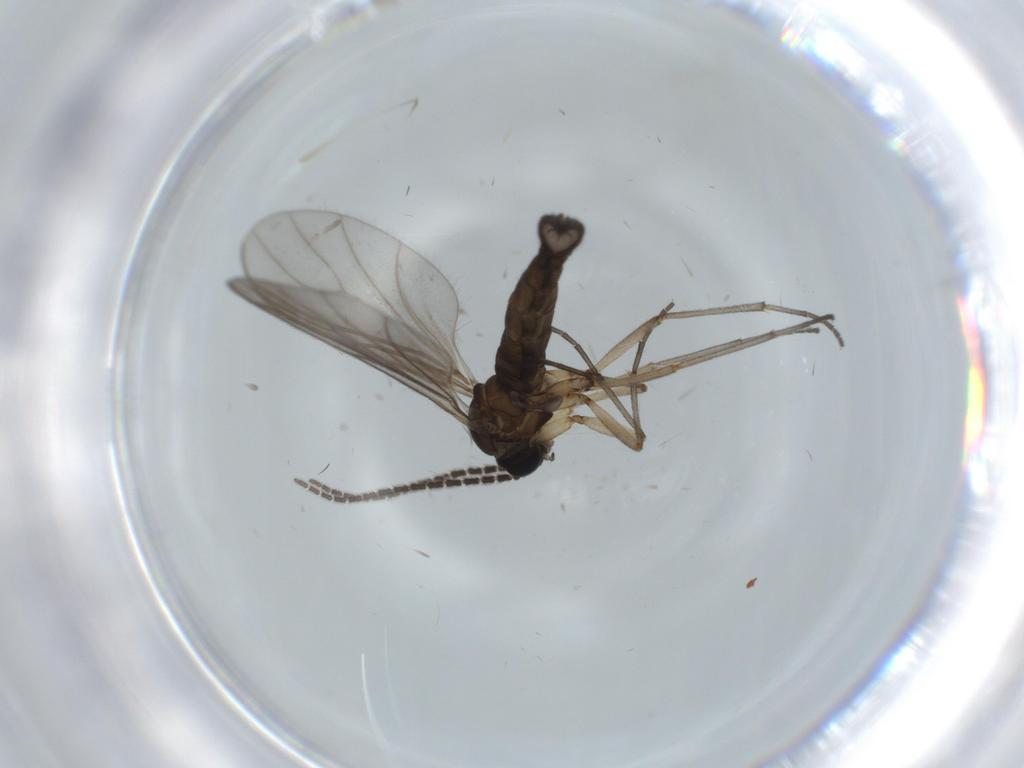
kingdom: Animalia
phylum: Arthropoda
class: Insecta
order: Diptera
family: Sciaridae
